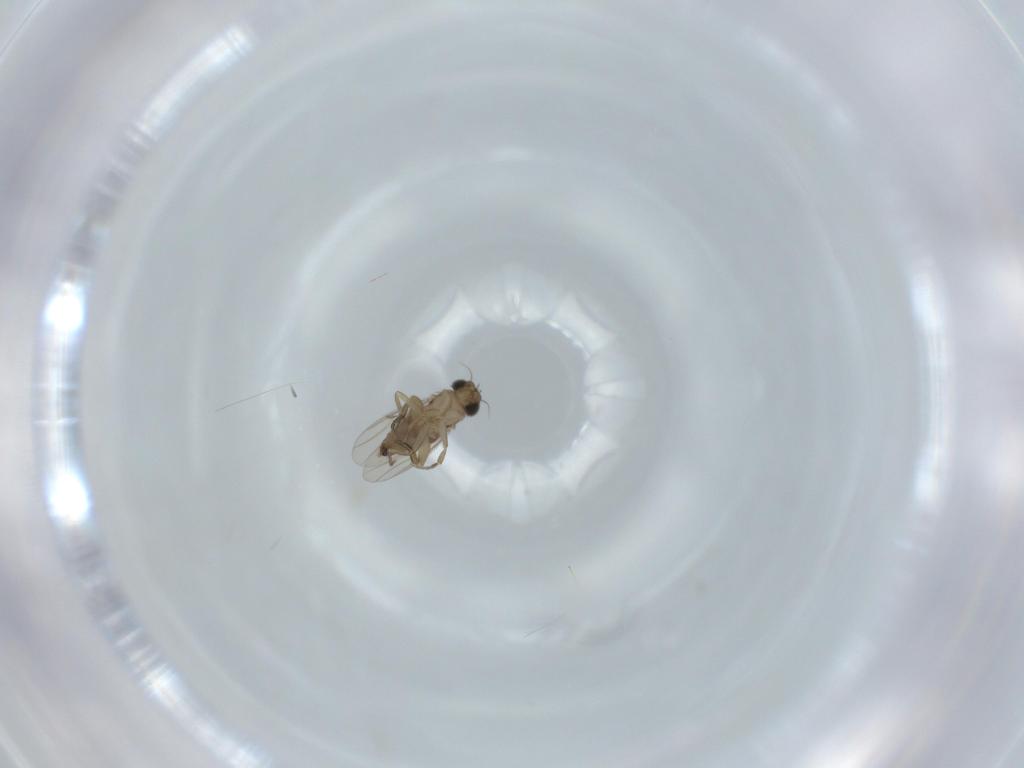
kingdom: Animalia
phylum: Arthropoda
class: Insecta
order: Diptera
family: Phoridae
